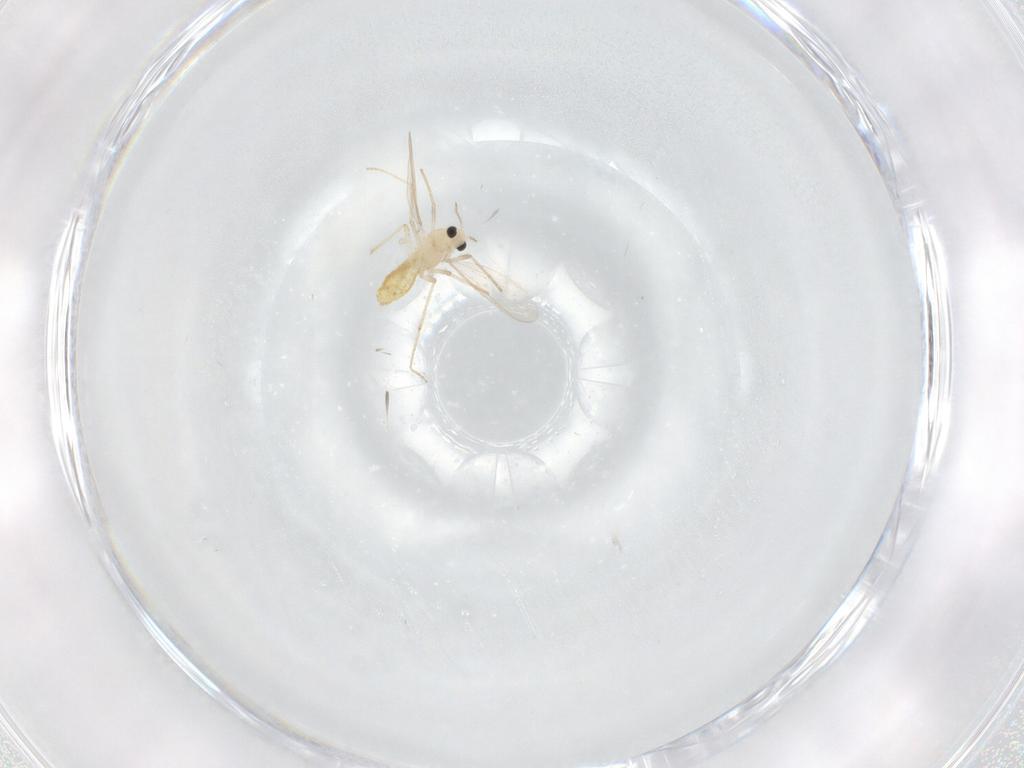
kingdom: Animalia
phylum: Arthropoda
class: Insecta
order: Diptera
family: Chironomidae
